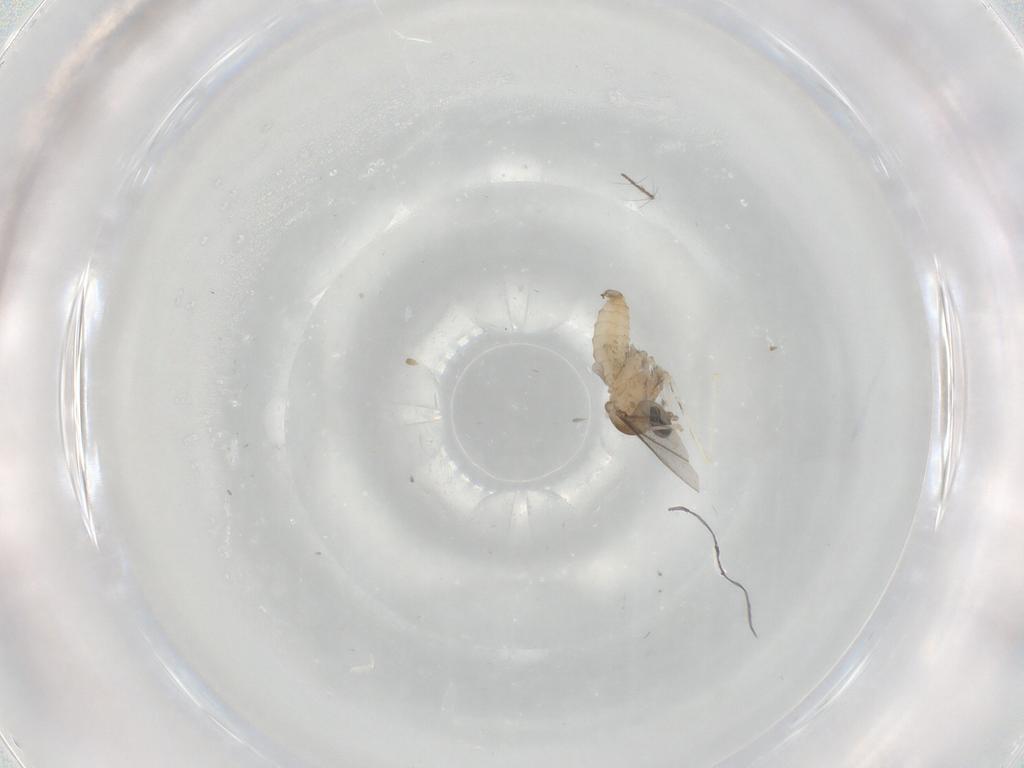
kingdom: Animalia
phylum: Arthropoda
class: Insecta
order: Diptera
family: Cecidomyiidae
